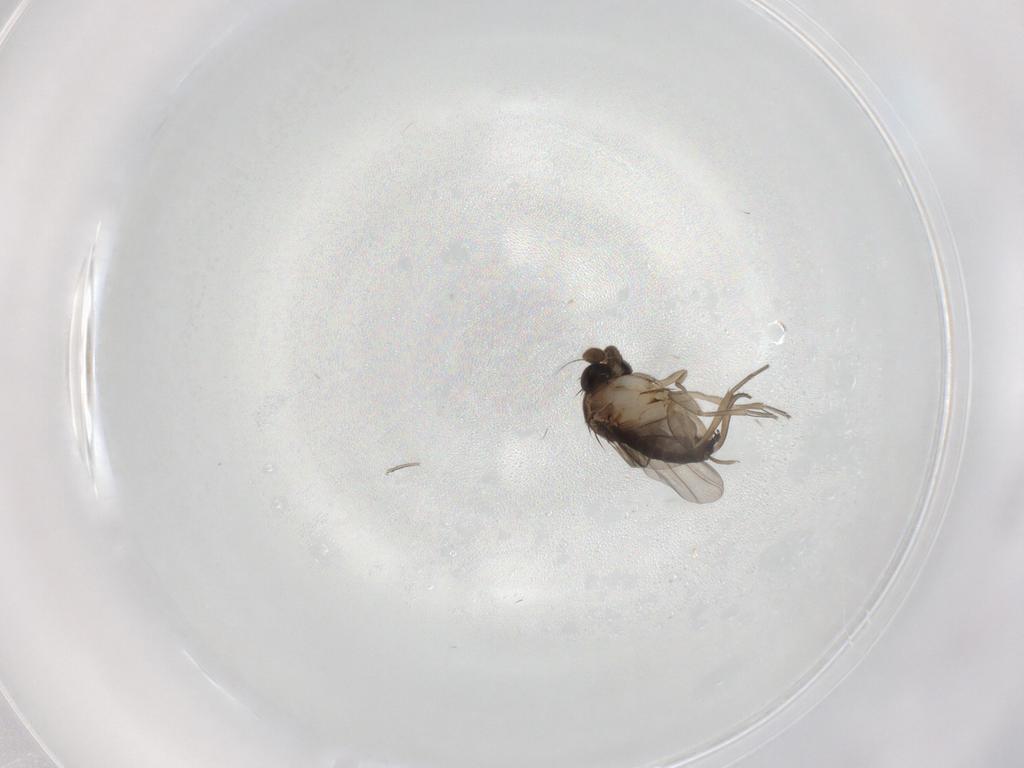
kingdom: Animalia
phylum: Arthropoda
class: Insecta
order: Diptera
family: Phoridae
